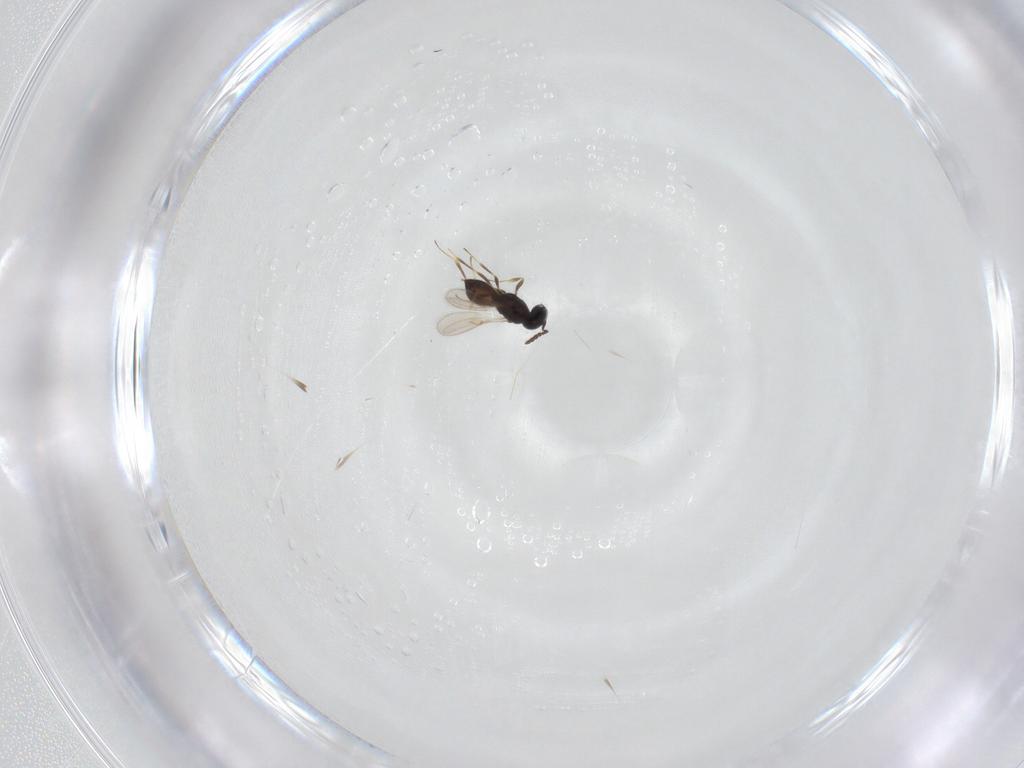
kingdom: Animalia
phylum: Arthropoda
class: Insecta
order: Hymenoptera
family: Scelionidae
